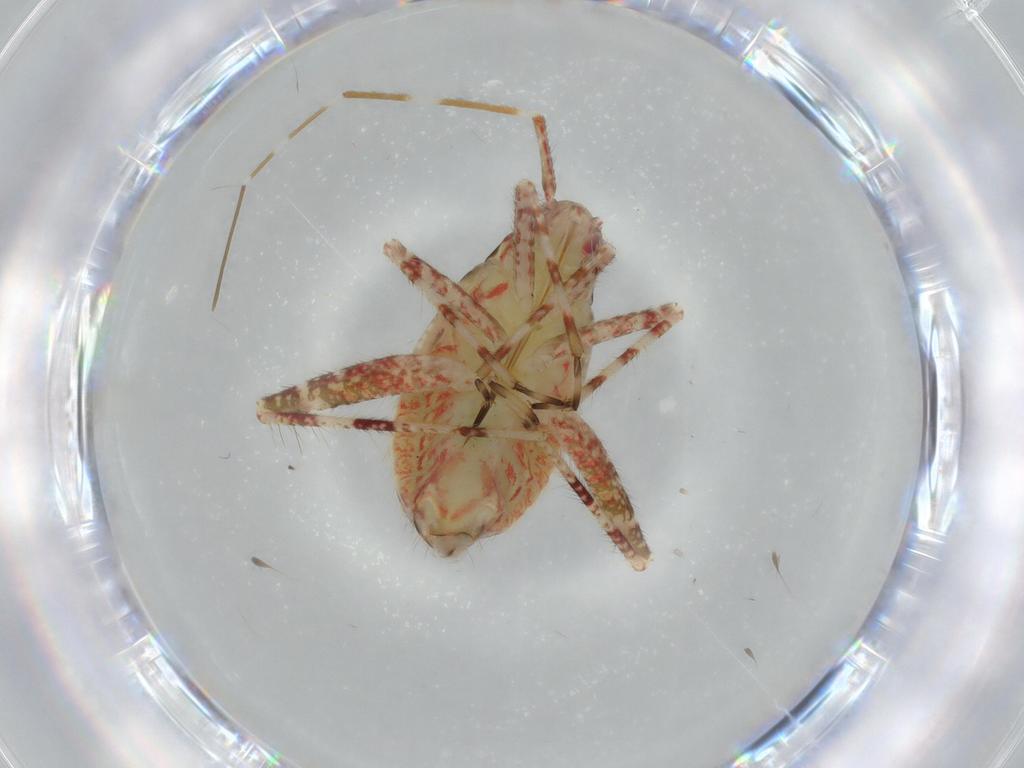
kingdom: Animalia
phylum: Arthropoda
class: Insecta
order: Hemiptera
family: Miridae
